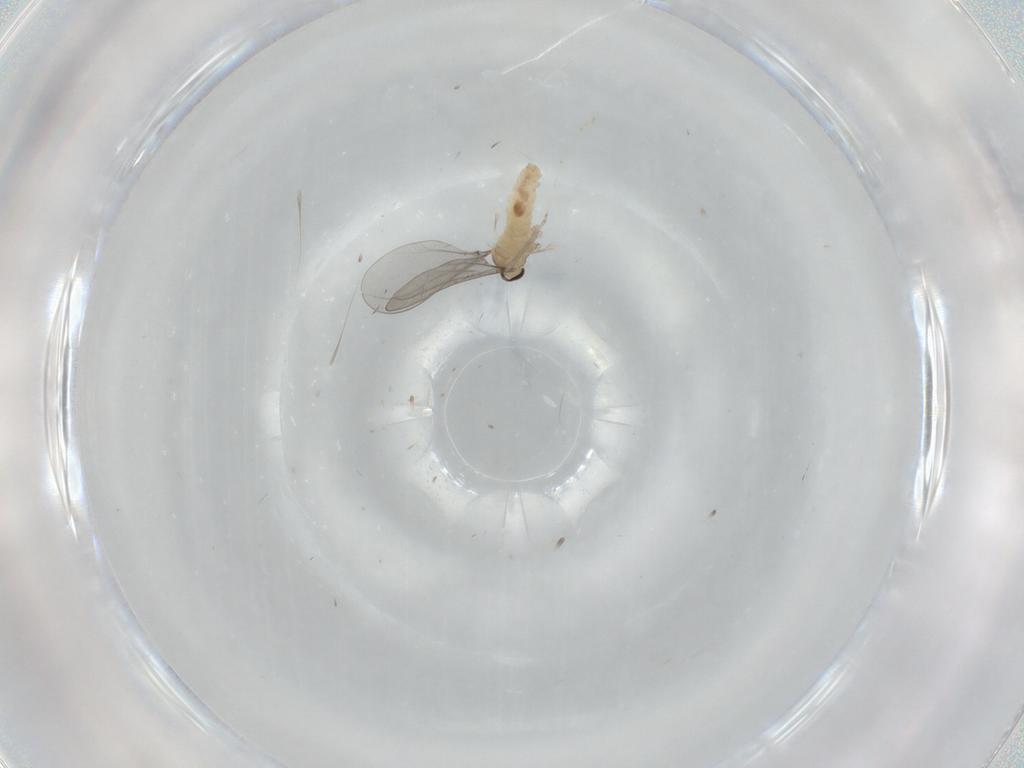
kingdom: Animalia
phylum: Arthropoda
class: Insecta
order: Diptera
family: Cecidomyiidae
